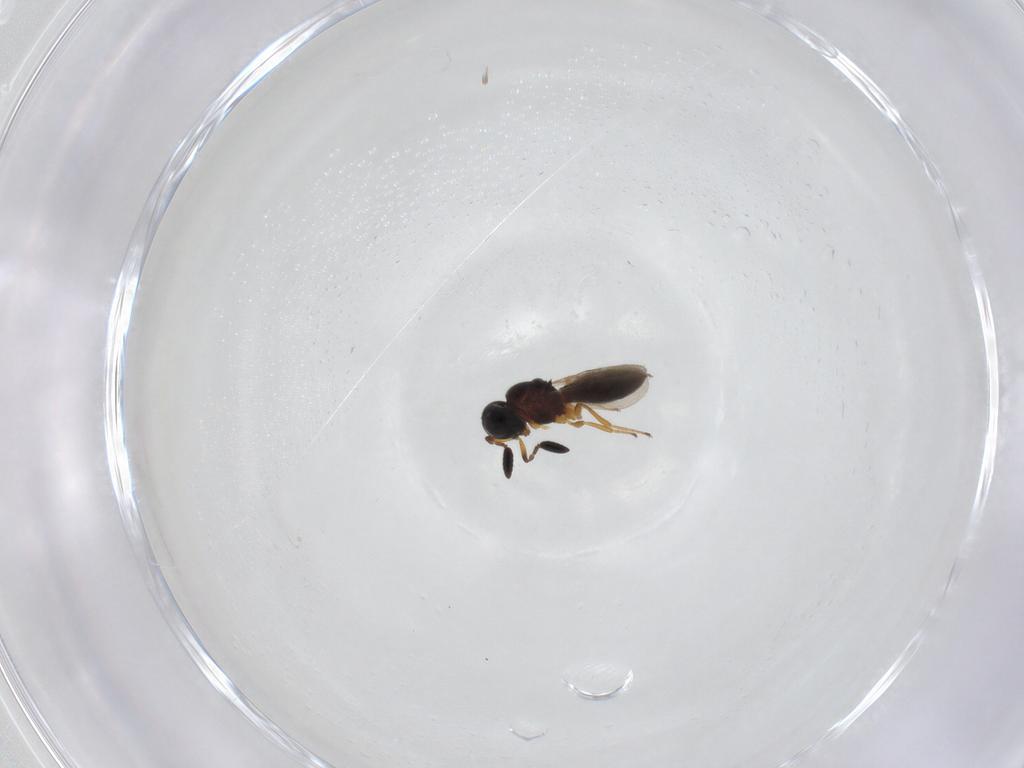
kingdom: Animalia
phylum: Arthropoda
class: Insecta
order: Hymenoptera
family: Scelionidae
